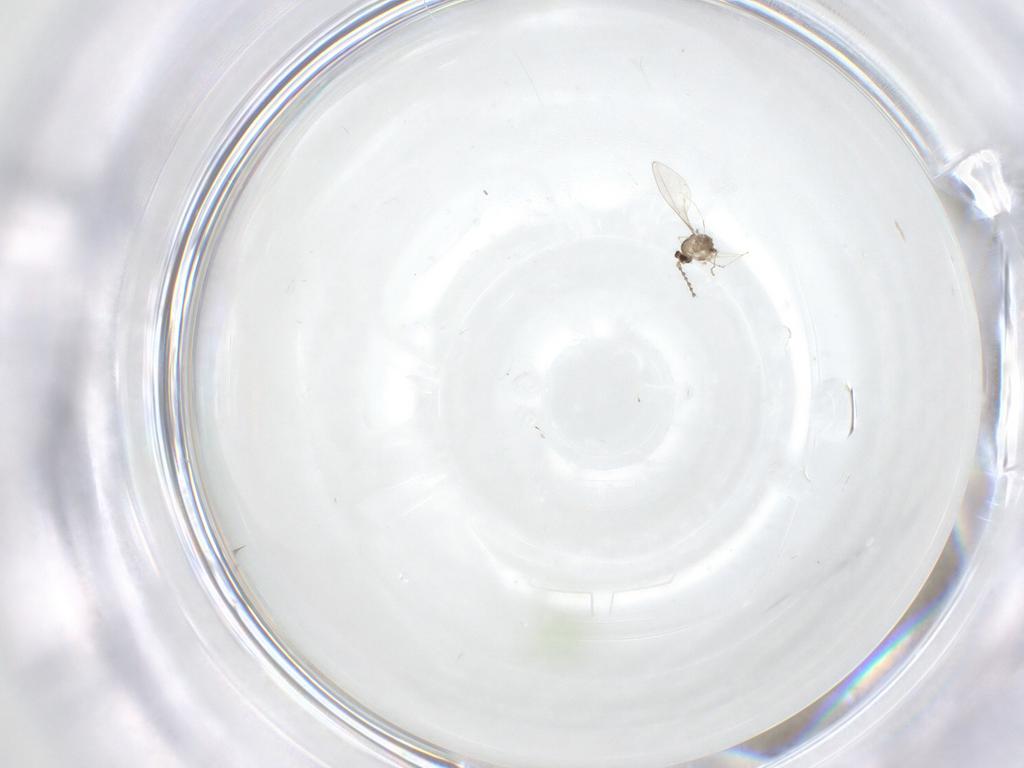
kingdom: Animalia
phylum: Arthropoda
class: Insecta
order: Diptera
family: Cecidomyiidae
